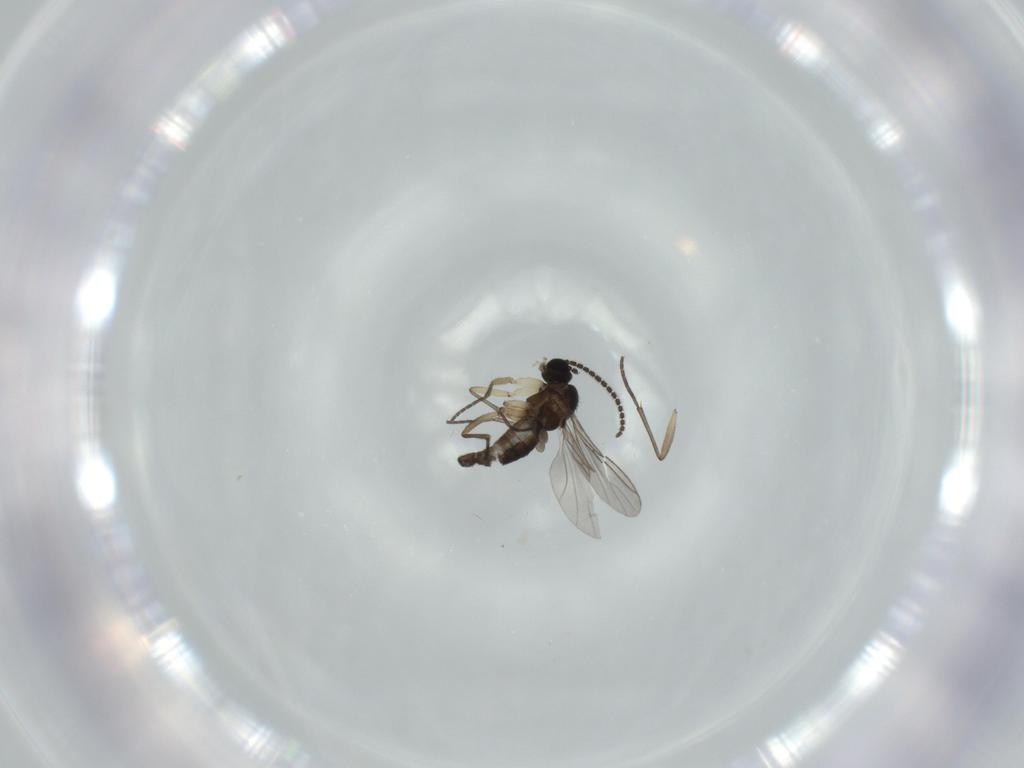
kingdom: Animalia
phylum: Arthropoda
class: Insecta
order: Diptera
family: Sciaridae
